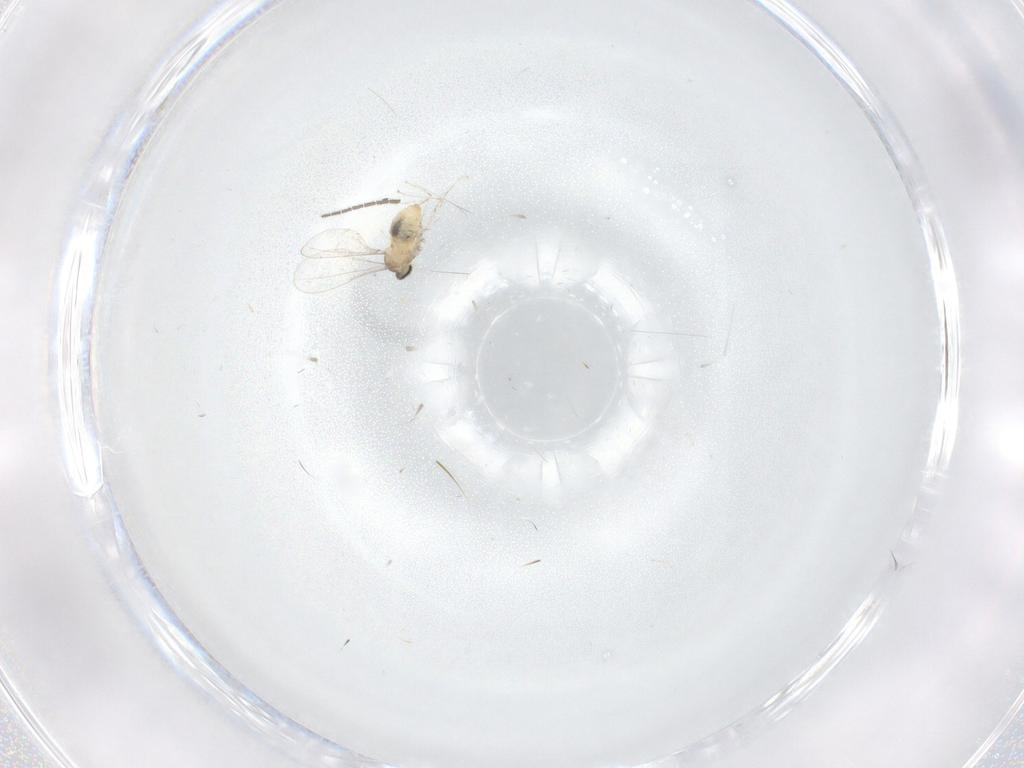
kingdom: Animalia
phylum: Arthropoda
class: Insecta
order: Diptera
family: Cecidomyiidae
